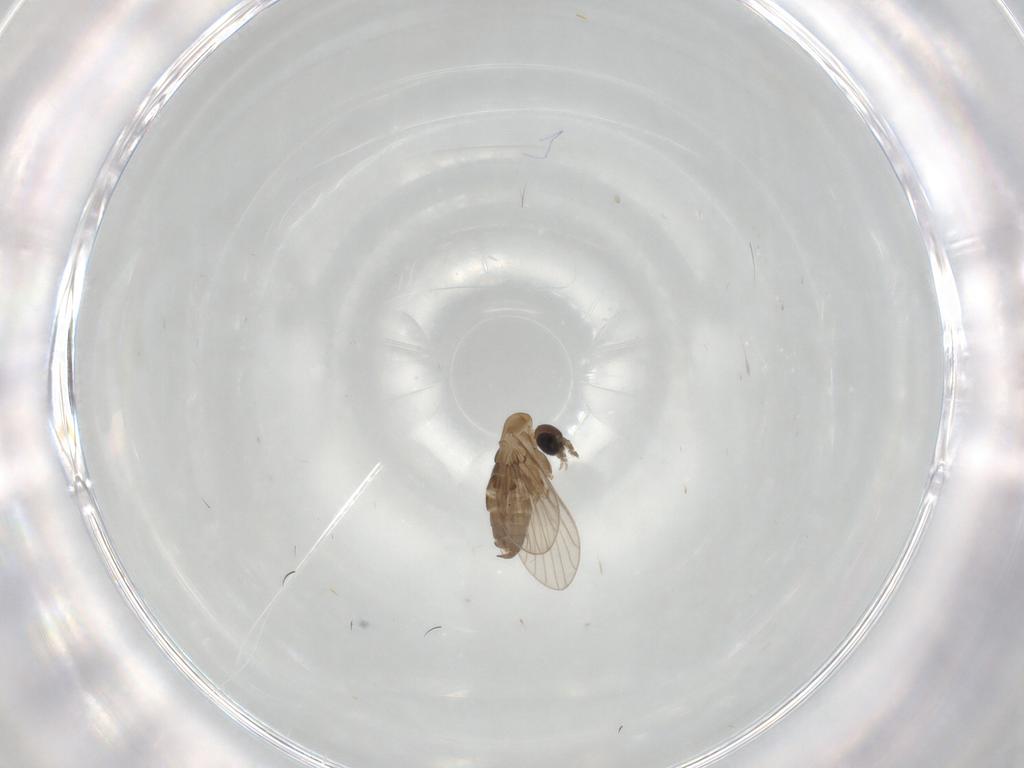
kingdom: Animalia
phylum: Arthropoda
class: Insecta
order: Diptera
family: Psychodidae
